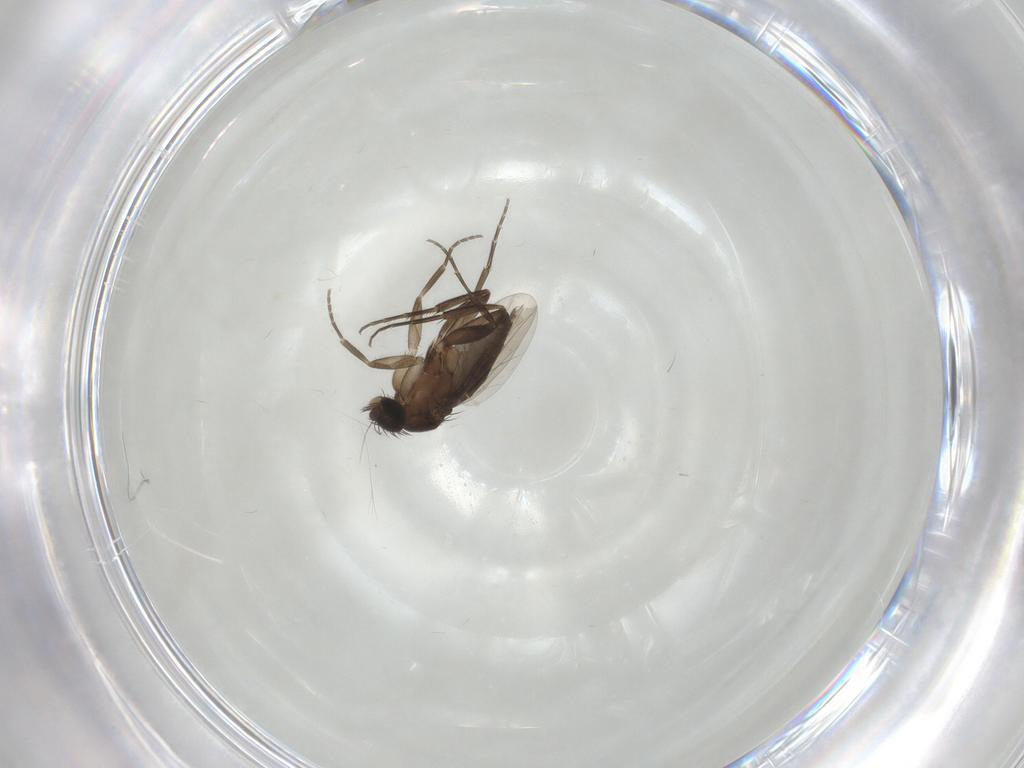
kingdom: Animalia
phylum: Arthropoda
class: Insecta
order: Diptera
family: Phoridae
